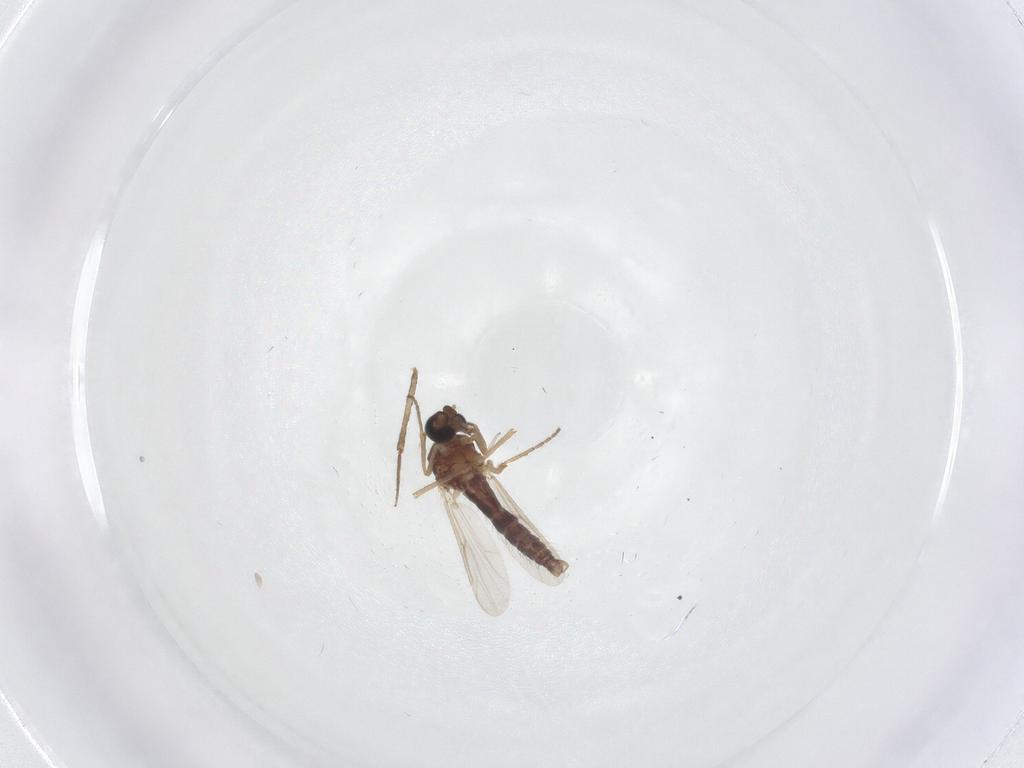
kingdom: Animalia
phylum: Arthropoda
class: Insecta
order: Diptera
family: Ceratopogonidae
